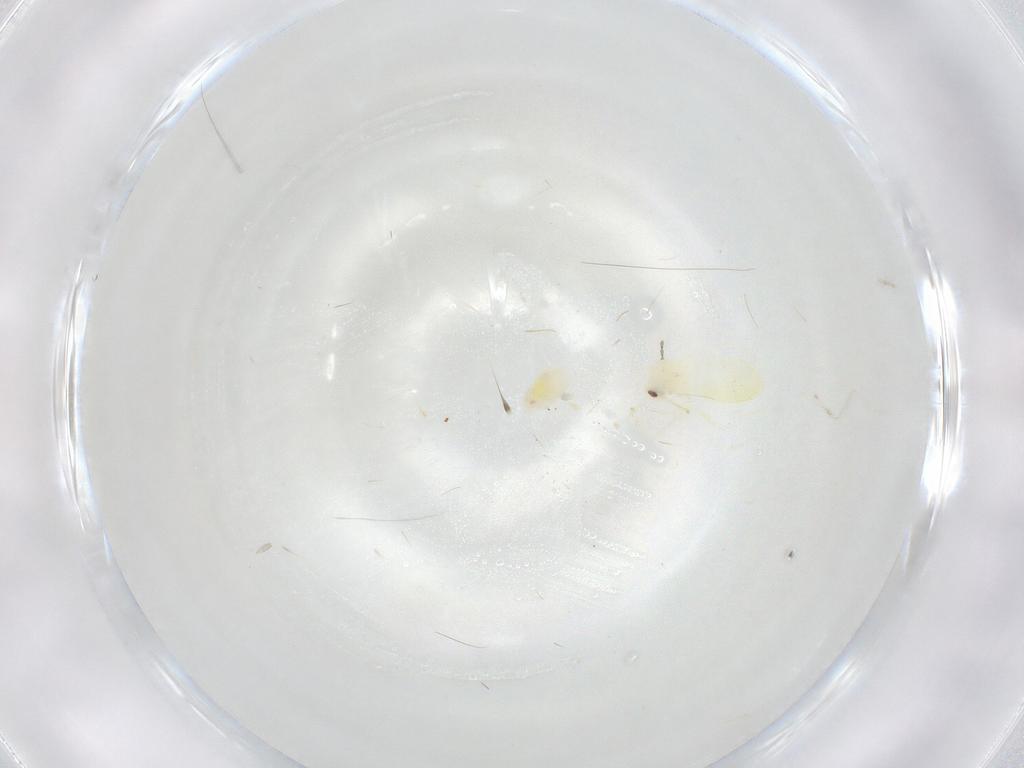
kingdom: Animalia
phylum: Arthropoda
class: Insecta
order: Hemiptera
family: Aleyrodidae
